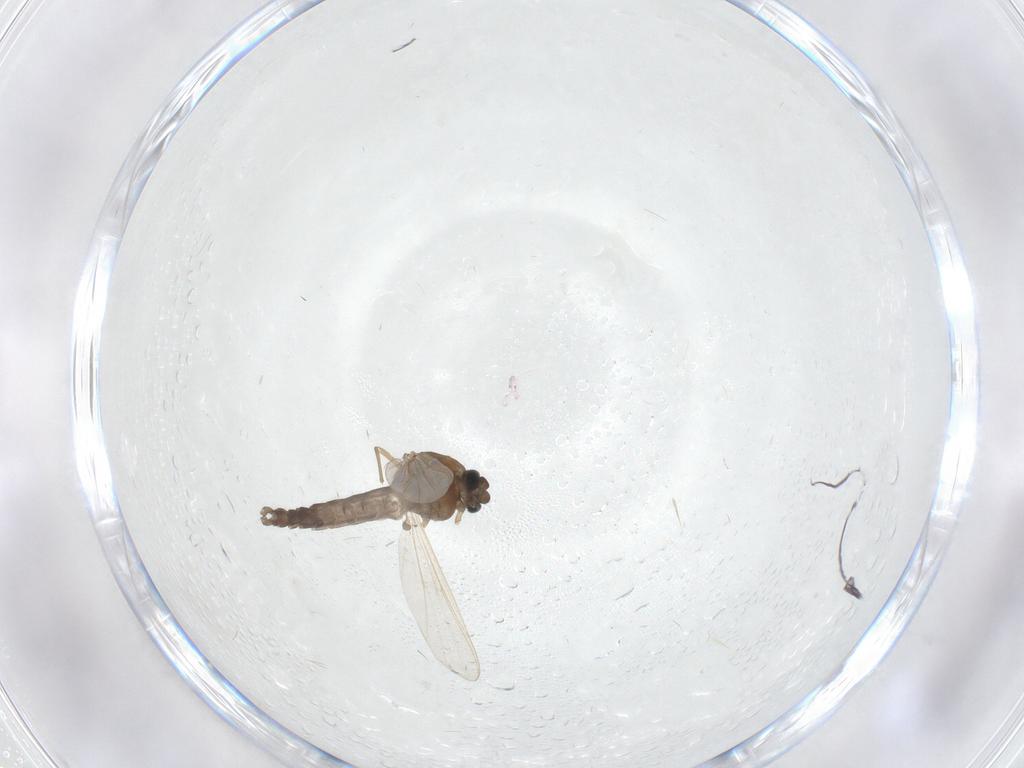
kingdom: Animalia
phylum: Arthropoda
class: Insecta
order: Diptera
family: Chironomidae
